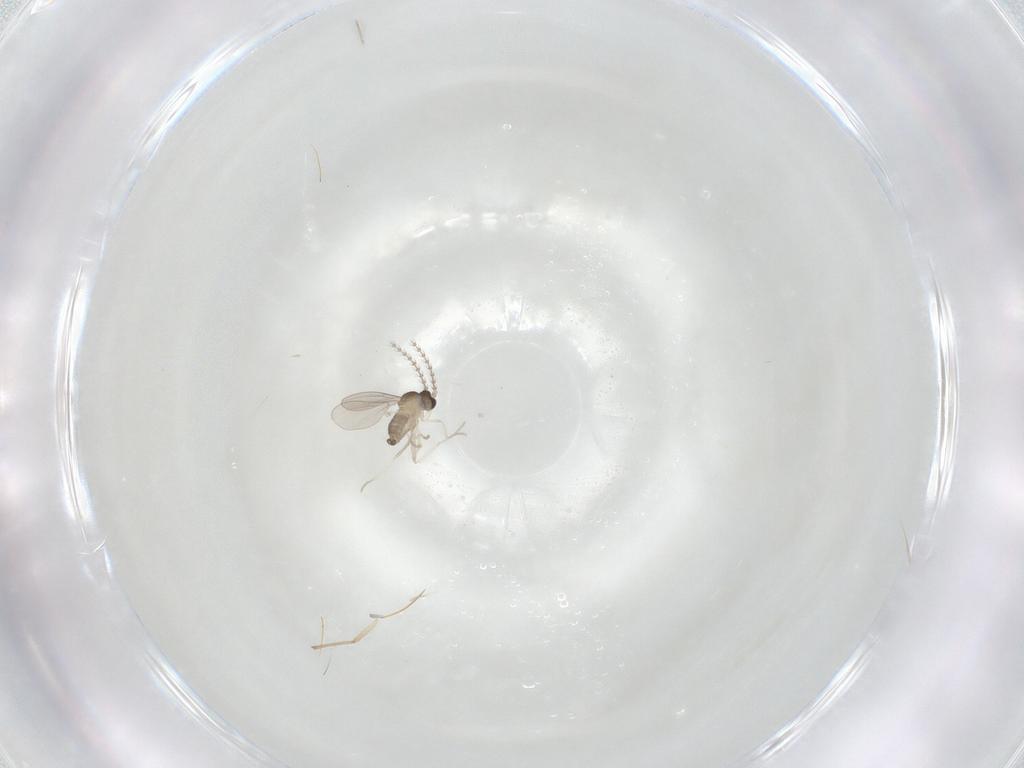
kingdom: Animalia
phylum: Arthropoda
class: Insecta
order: Diptera
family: Cecidomyiidae
